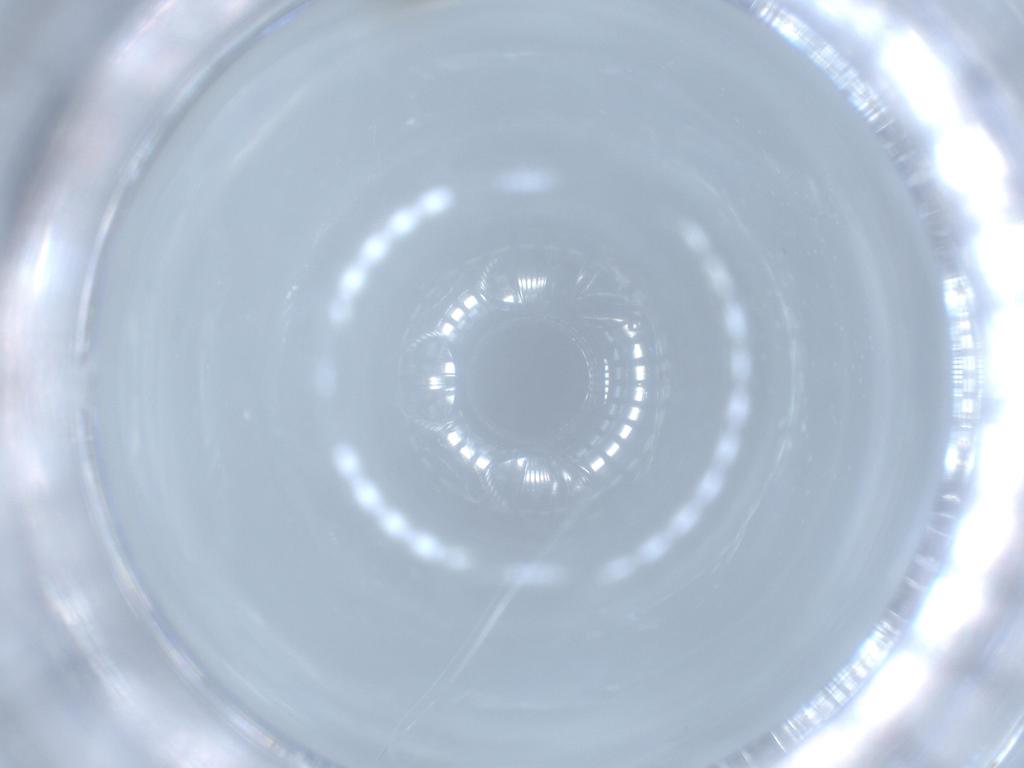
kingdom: Animalia
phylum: Arthropoda
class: Insecta
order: Diptera
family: Cecidomyiidae
